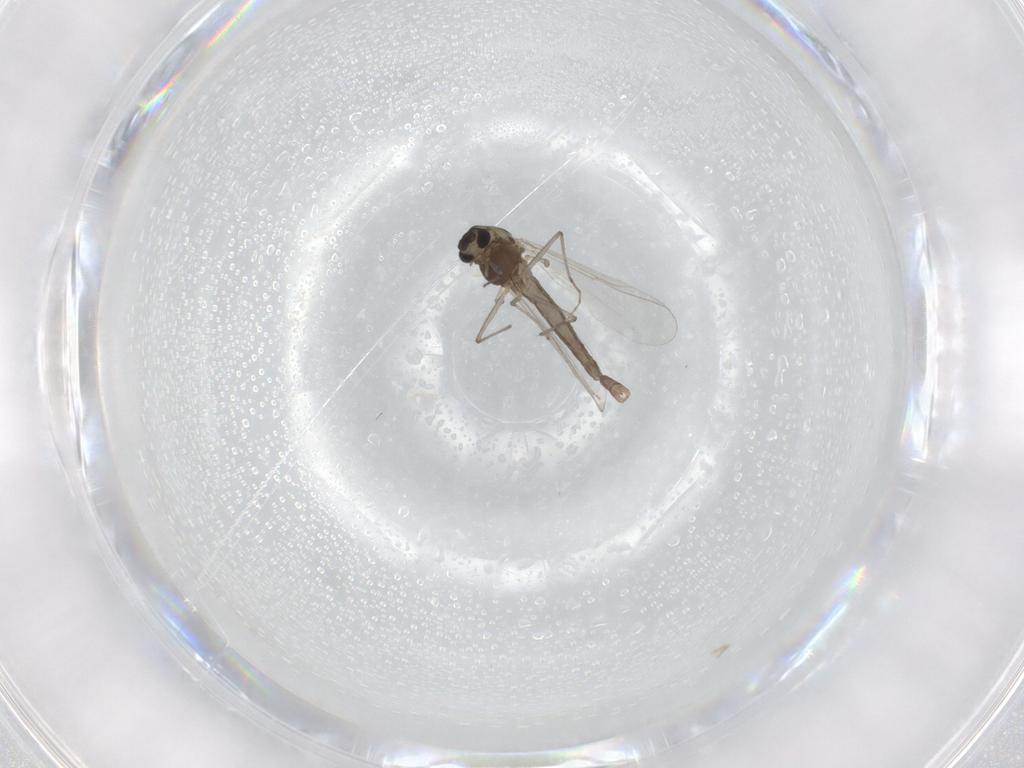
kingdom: Animalia
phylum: Arthropoda
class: Insecta
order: Diptera
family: Chironomidae
